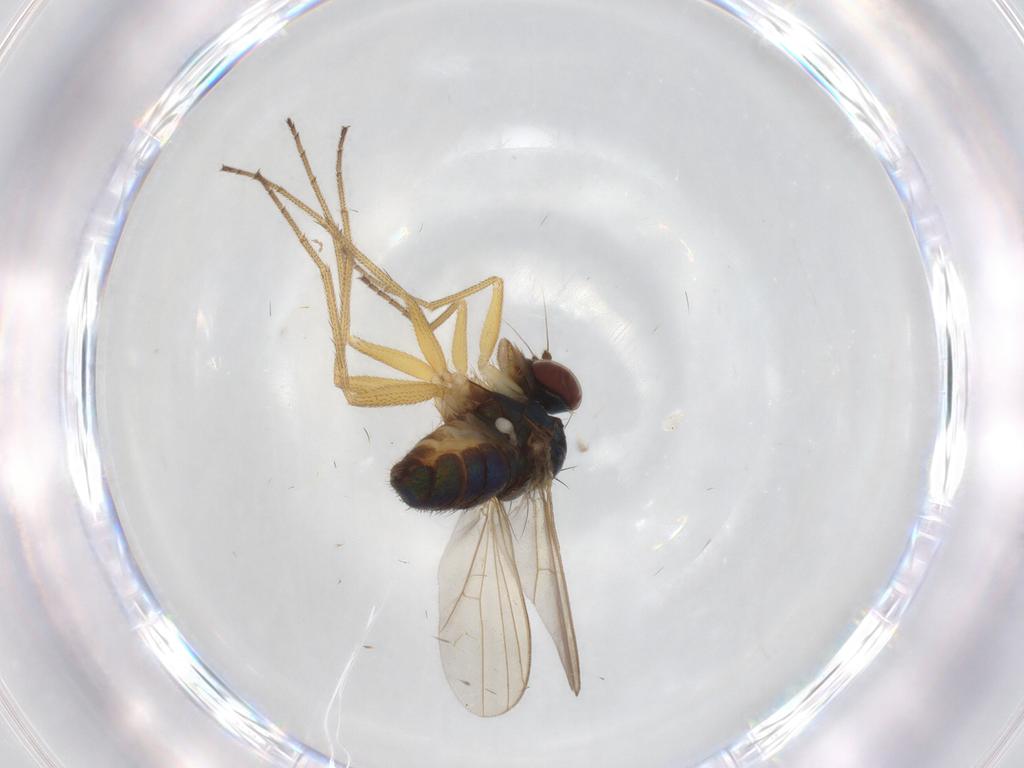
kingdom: Animalia
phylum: Arthropoda
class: Insecta
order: Diptera
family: Dolichopodidae
